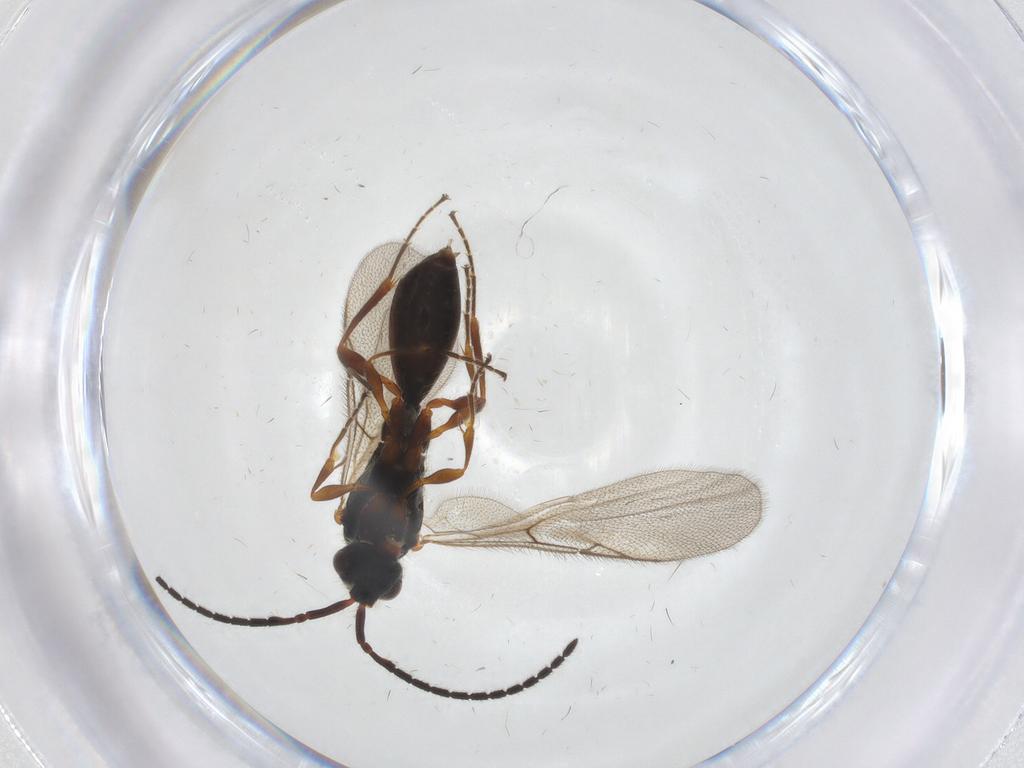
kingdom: Animalia
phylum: Arthropoda
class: Insecta
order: Hymenoptera
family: Diapriidae
